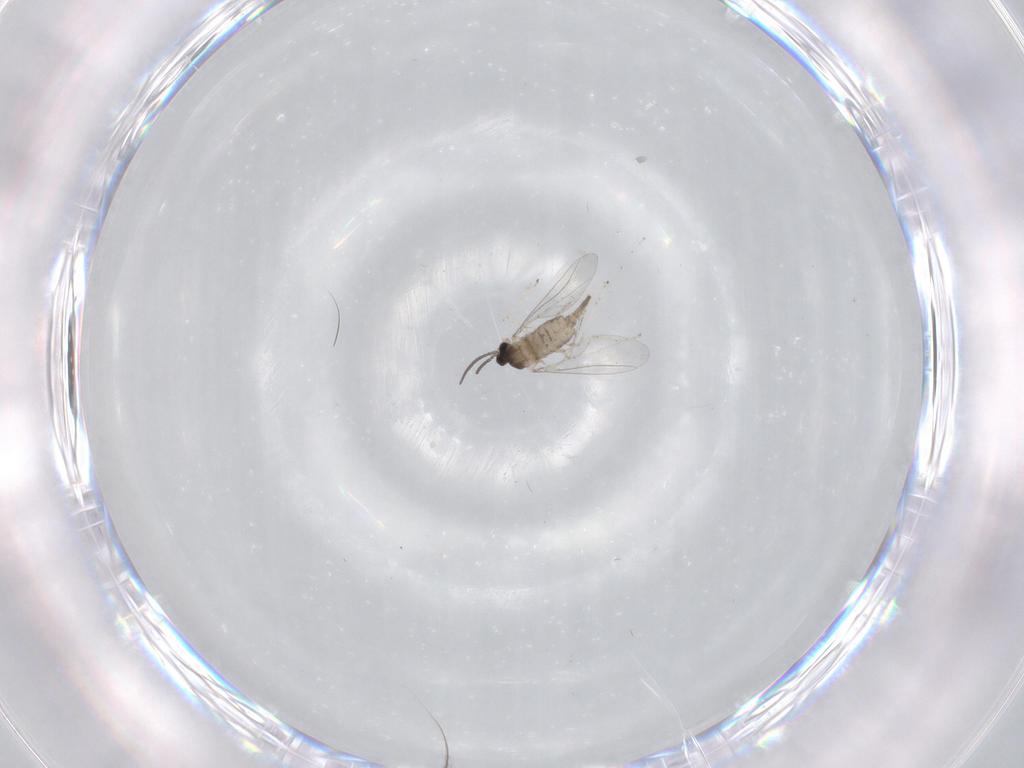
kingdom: Animalia
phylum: Arthropoda
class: Insecta
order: Diptera
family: Cecidomyiidae
